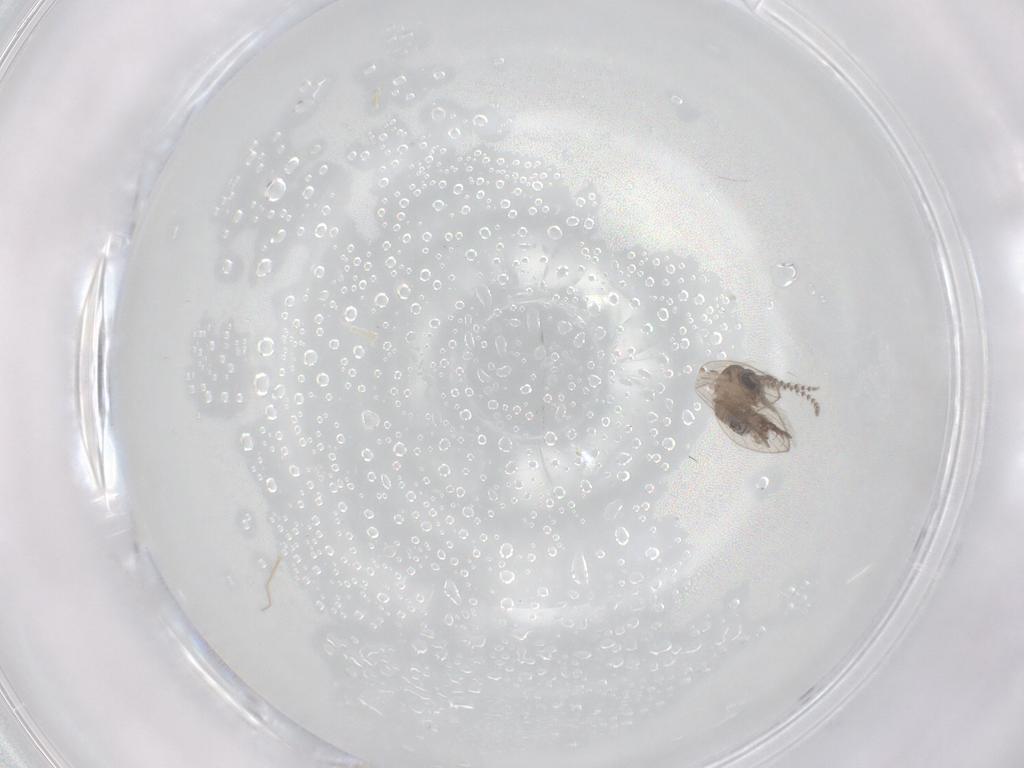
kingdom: Animalia
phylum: Arthropoda
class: Insecta
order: Diptera
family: Psychodidae
